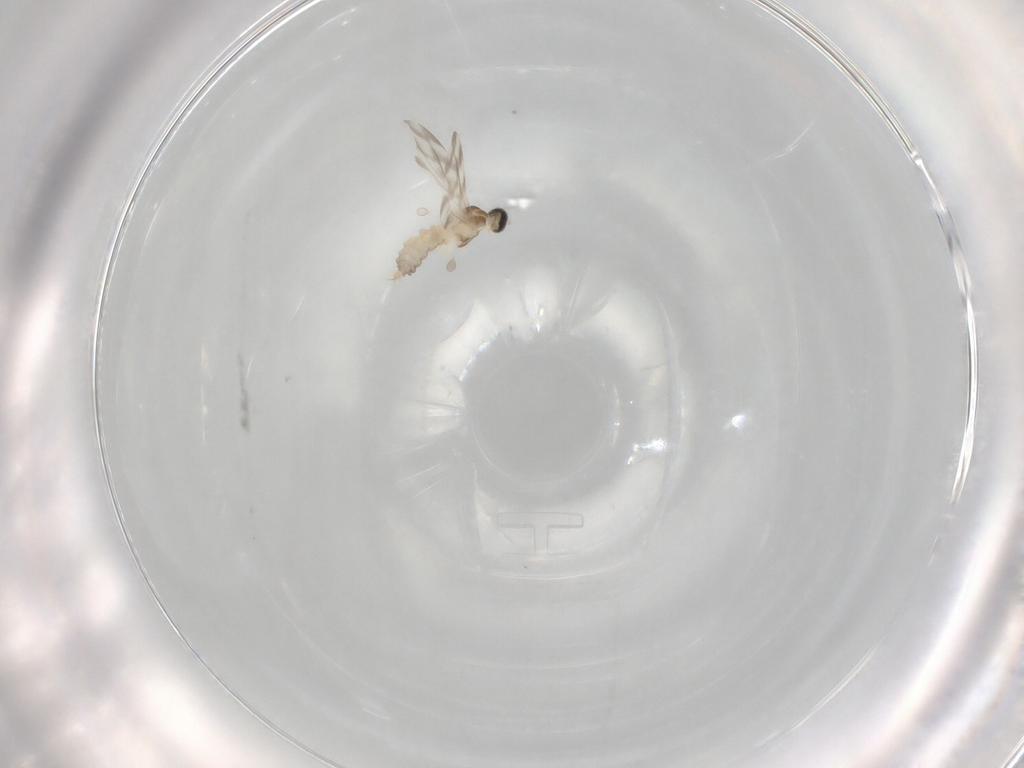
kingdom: Animalia
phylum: Arthropoda
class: Insecta
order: Diptera
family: Cecidomyiidae
